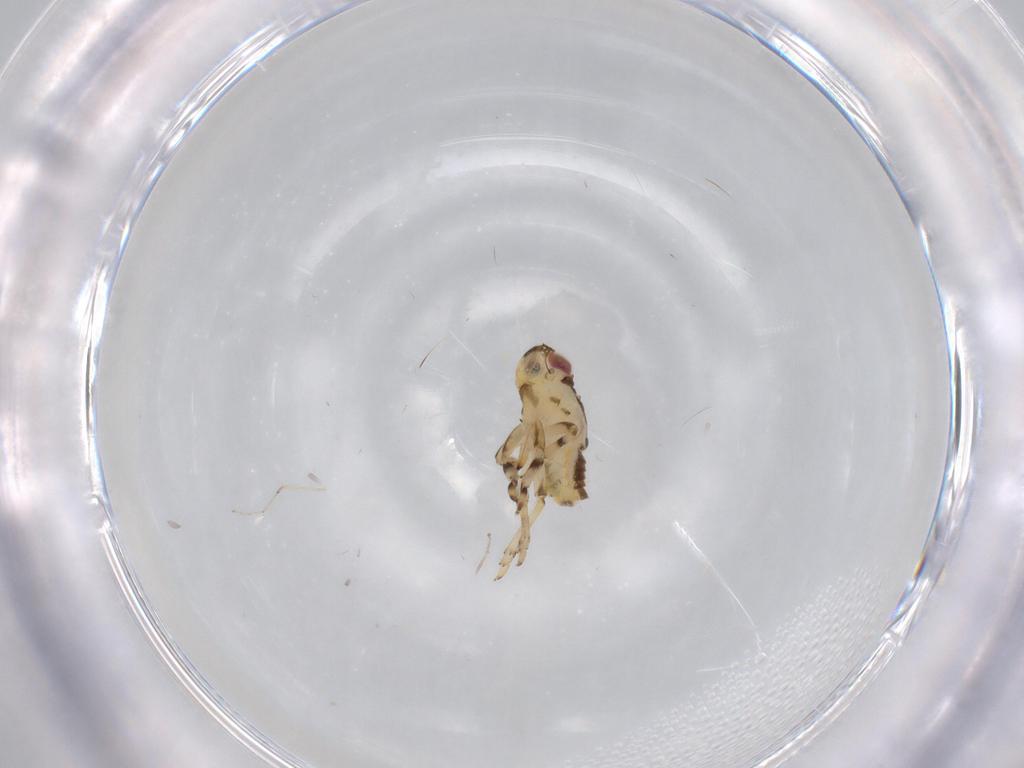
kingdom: Animalia
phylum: Arthropoda
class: Insecta
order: Hemiptera
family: Issidae
